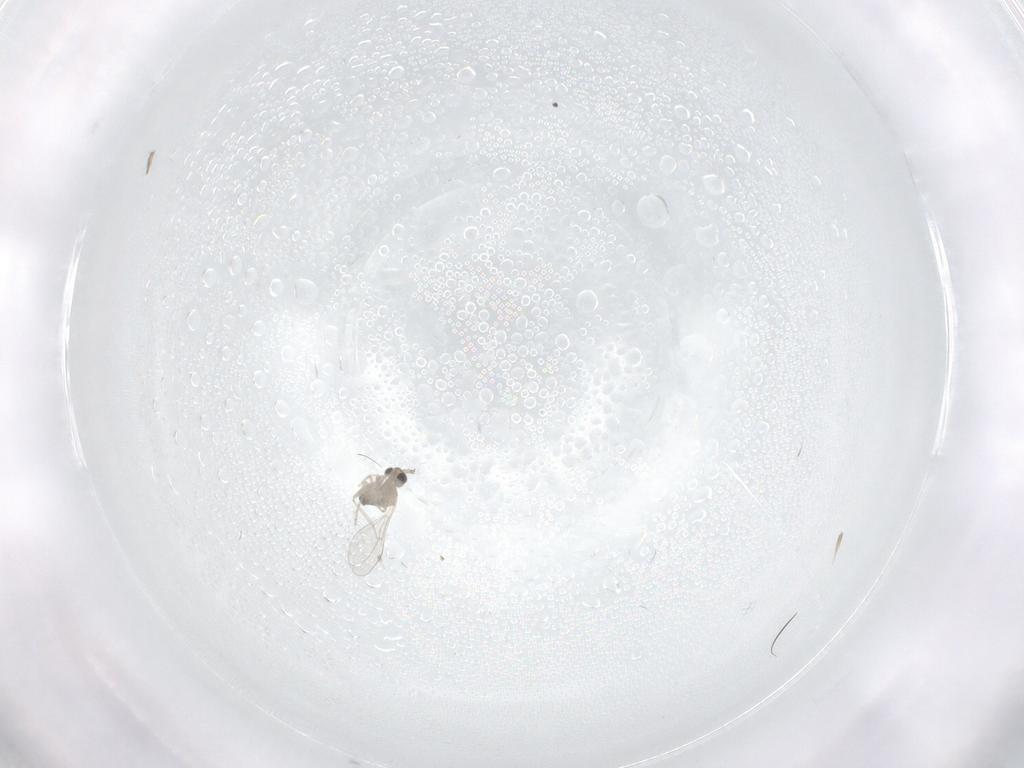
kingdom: Animalia
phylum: Arthropoda
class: Insecta
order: Diptera
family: Cecidomyiidae
